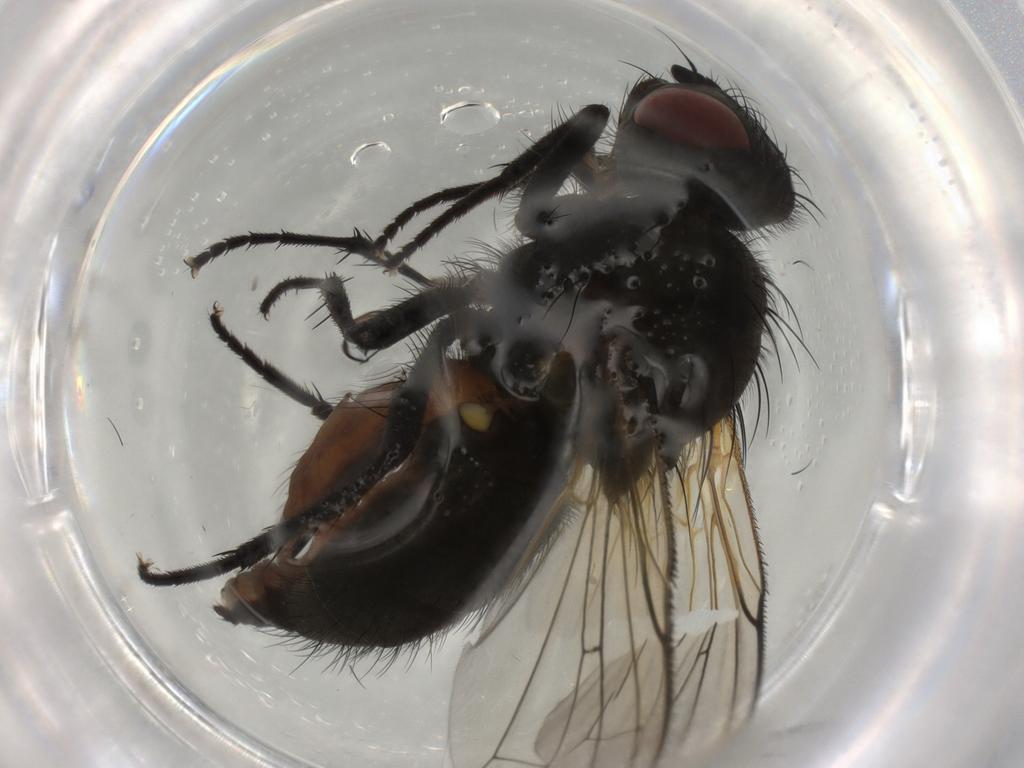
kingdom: Animalia
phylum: Arthropoda
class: Insecta
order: Diptera
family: Anthomyiidae
